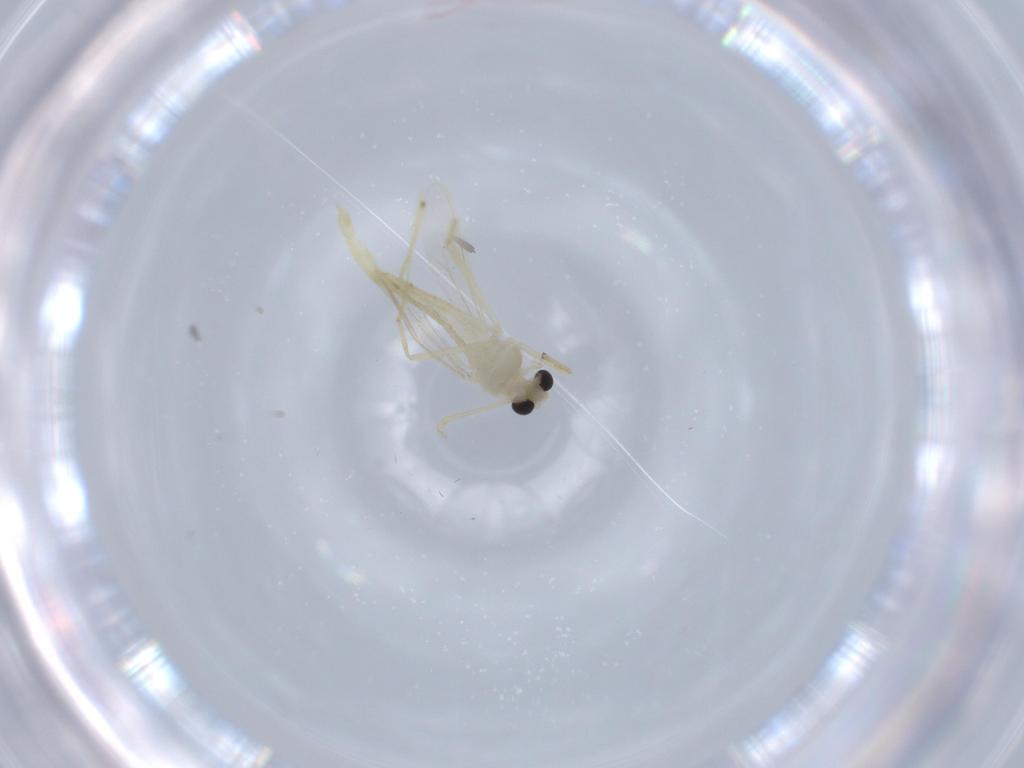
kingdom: Animalia
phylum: Arthropoda
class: Insecta
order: Diptera
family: Chironomidae
